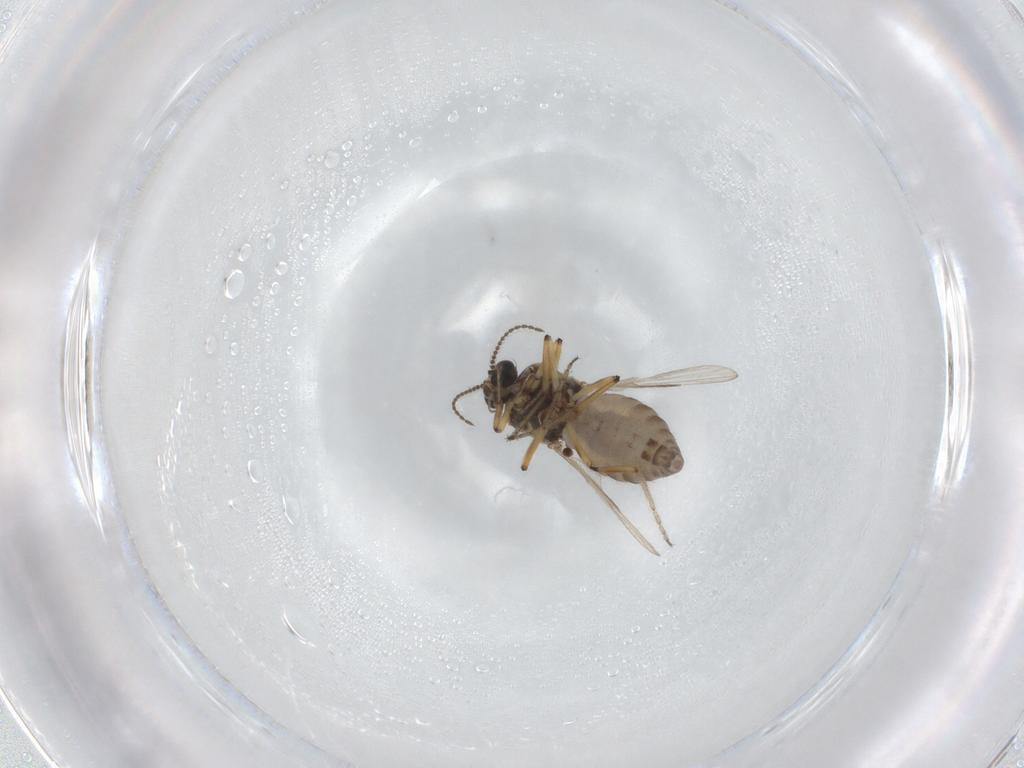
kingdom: Animalia
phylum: Arthropoda
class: Insecta
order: Diptera
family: Ceratopogonidae
